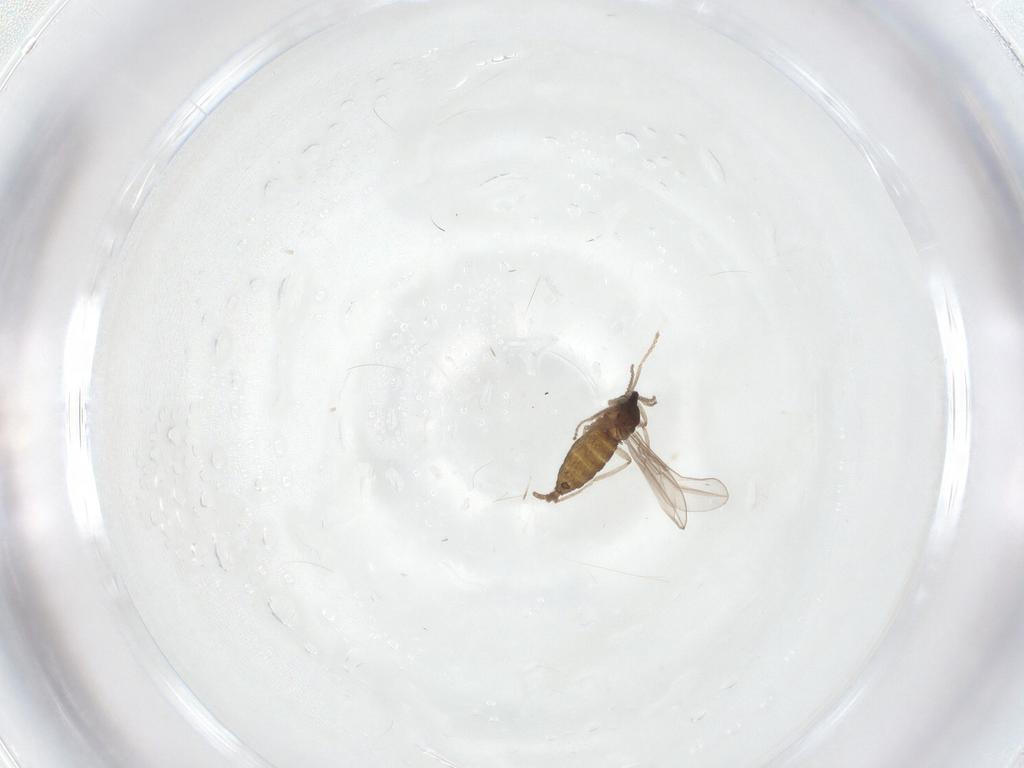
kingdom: Animalia
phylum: Arthropoda
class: Insecta
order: Diptera
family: Cecidomyiidae
